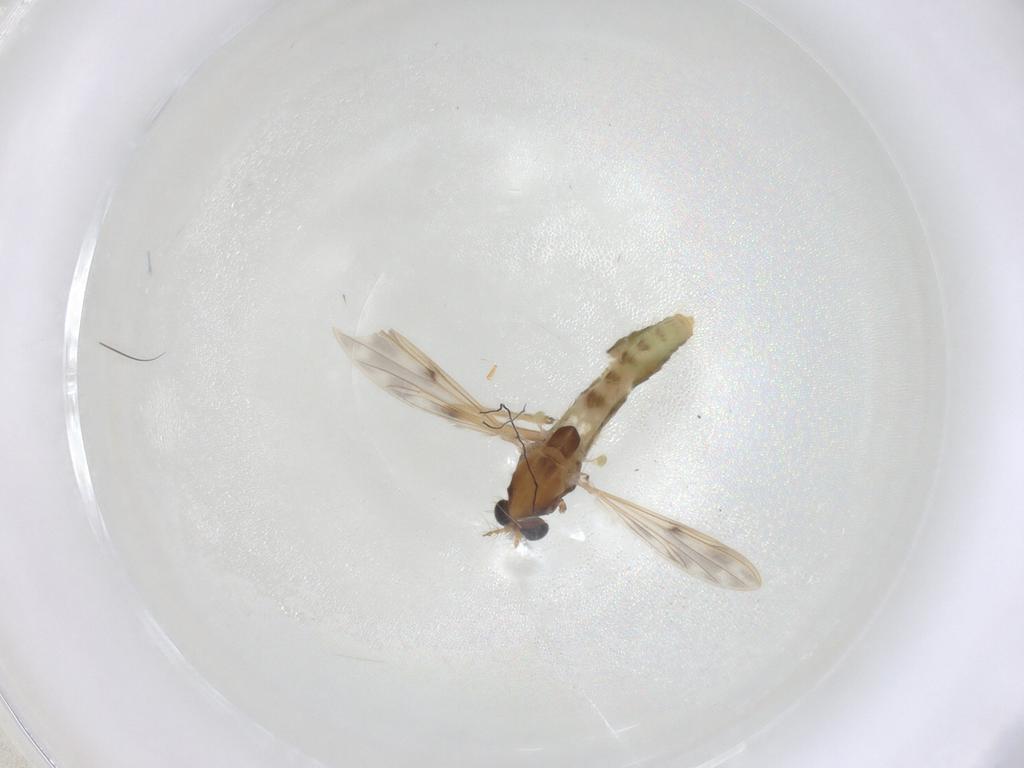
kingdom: Animalia
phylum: Arthropoda
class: Insecta
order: Diptera
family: Chironomidae
